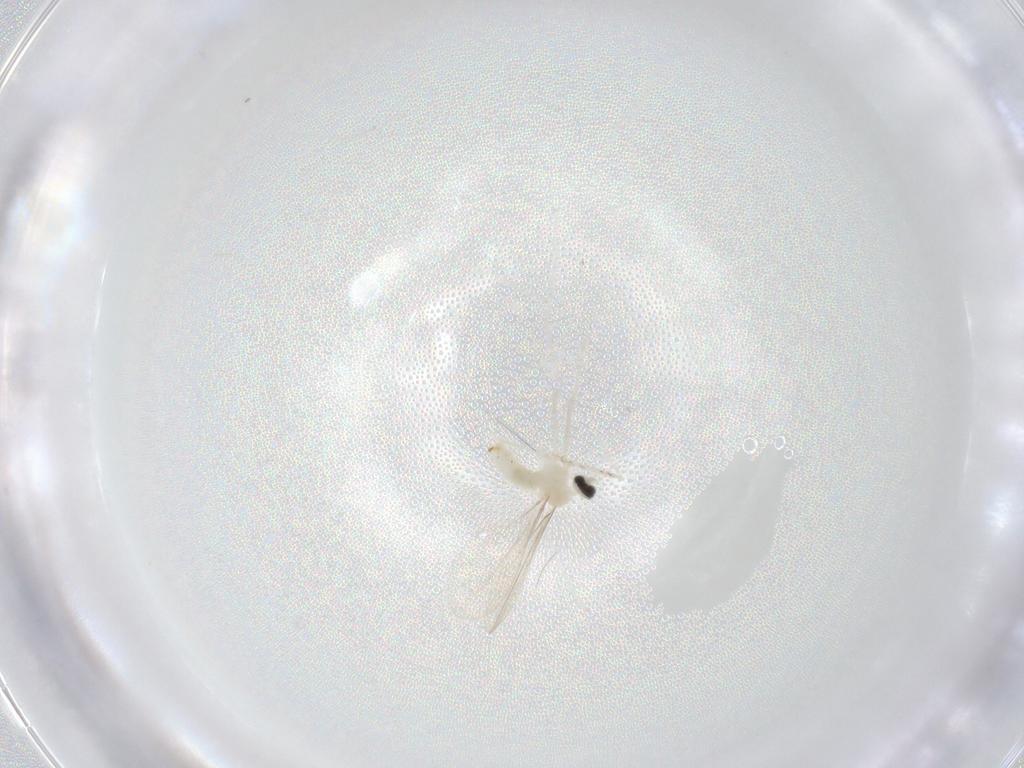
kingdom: Animalia
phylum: Arthropoda
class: Insecta
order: Diptera
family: Cecidomyiidae
